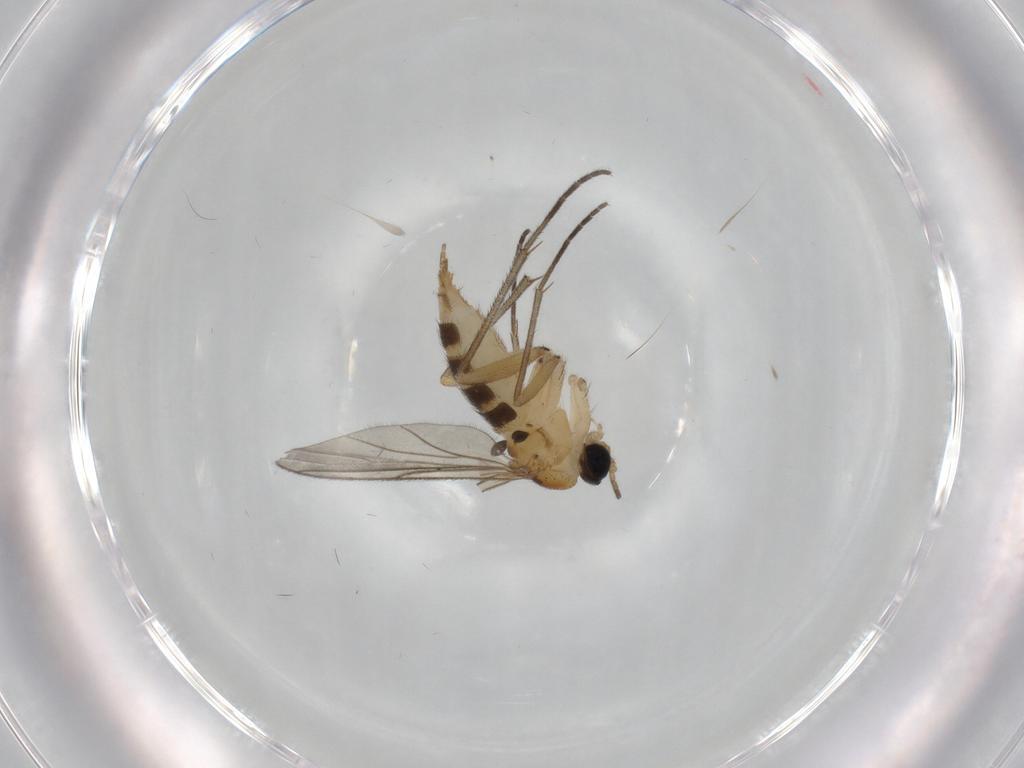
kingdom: Animalia
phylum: Arthropoda
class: Insecta
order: Diptera
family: Sciaridae
